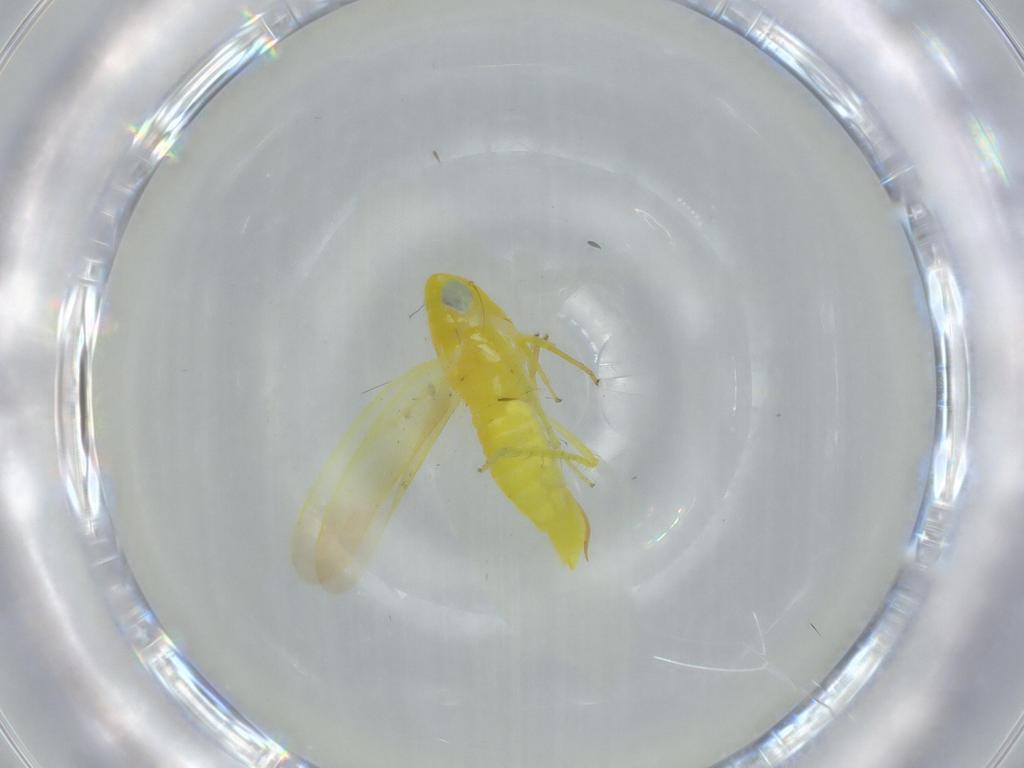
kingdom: Animalia
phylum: Arthropoda
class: Insecta
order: Hemiptera
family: Cicadellidae
